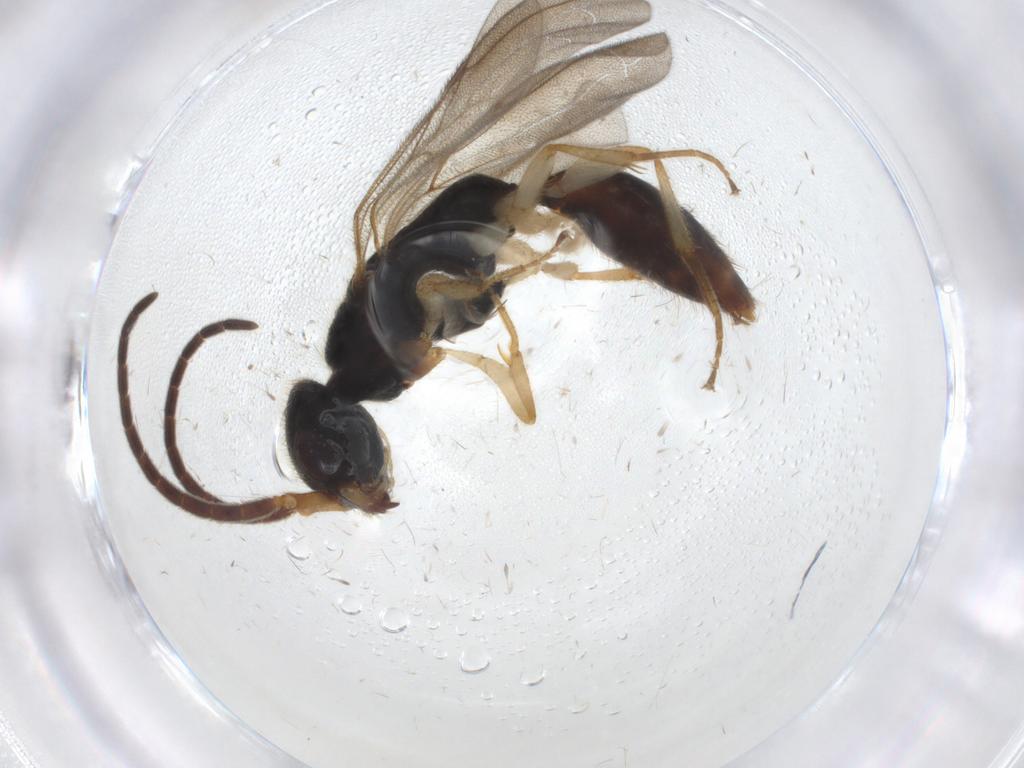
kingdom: Animalia
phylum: Arthropoda
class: Insecta
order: Hymenoptera
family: Bethylidae
